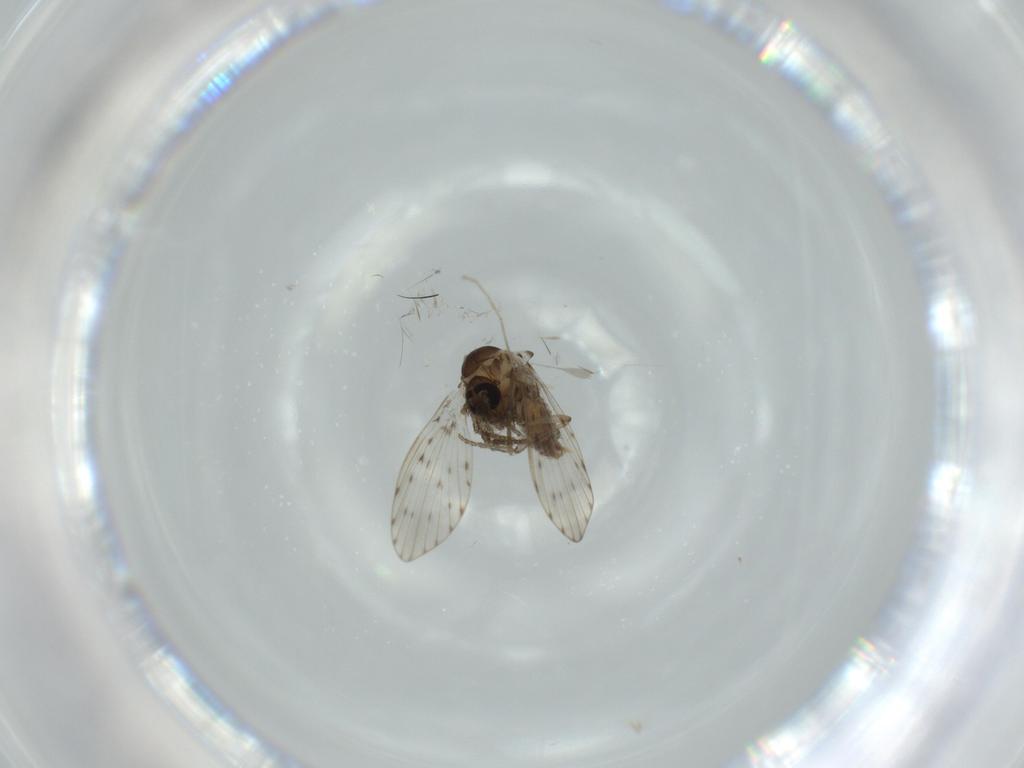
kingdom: Animalia
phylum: Arthropoda
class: Insecta
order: Diptera
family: Psychodidae
